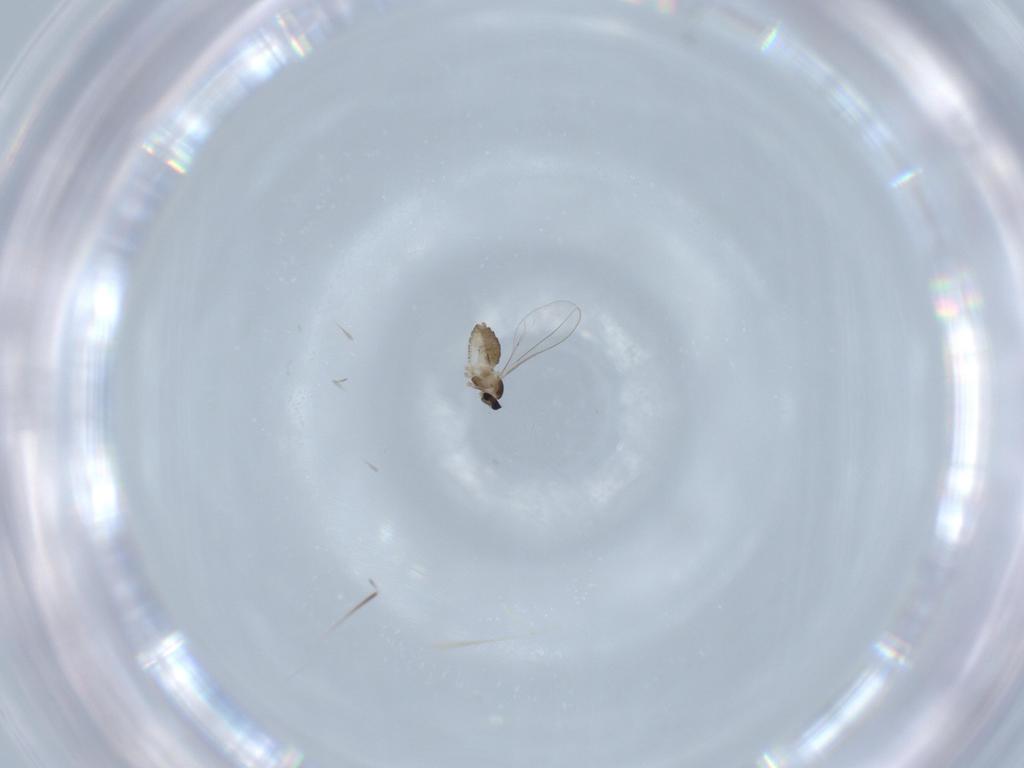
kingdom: Animalia
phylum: Arthropoda
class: Insecta
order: Diptera
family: Cecidomyiidae
